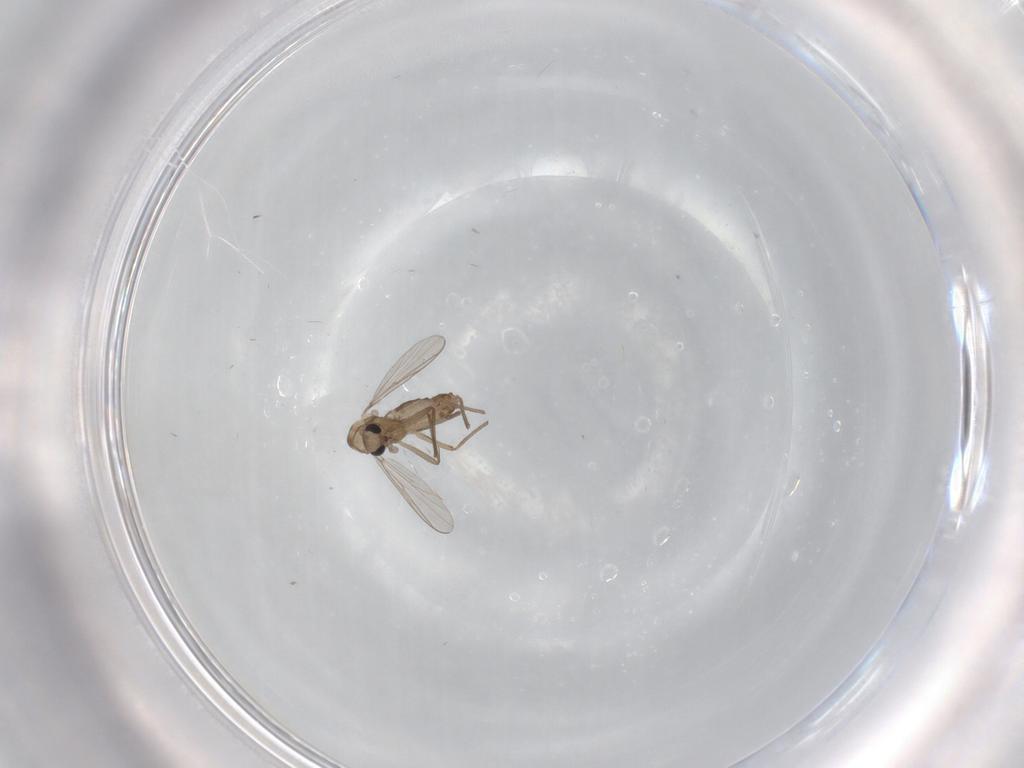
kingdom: Animalia
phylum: Arthropoda
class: Insecta
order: Diptera
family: Chironomidae
